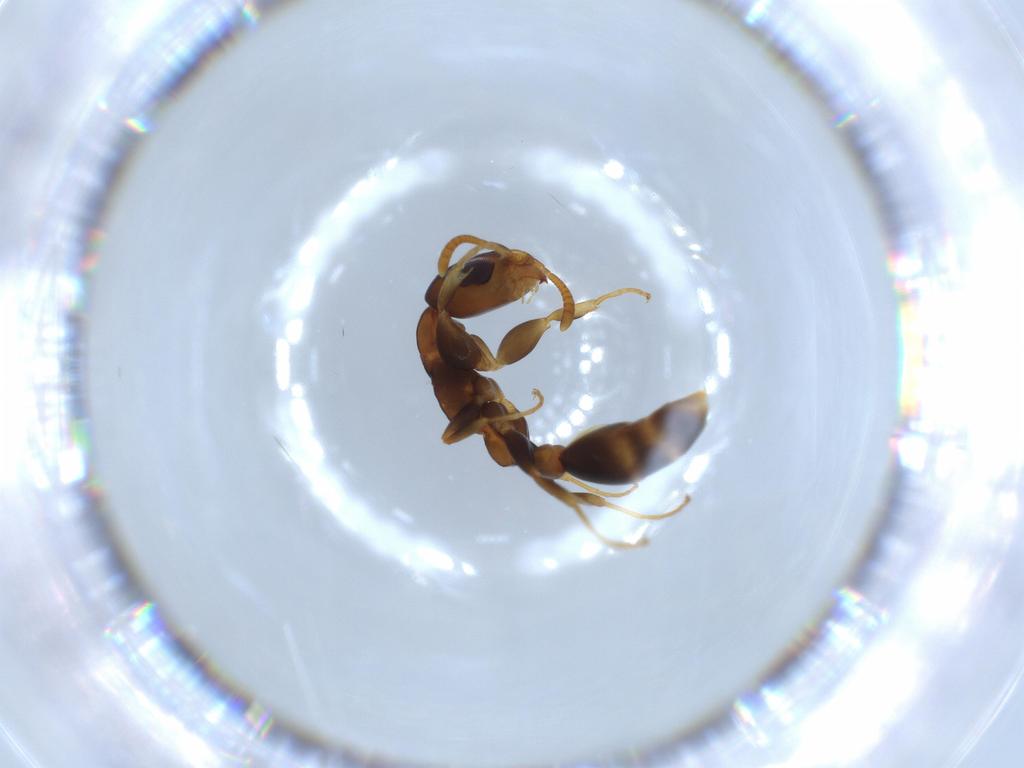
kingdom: Animalia
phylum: Arthropoda
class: Insecta
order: Hymenoptera
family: Formicidae
